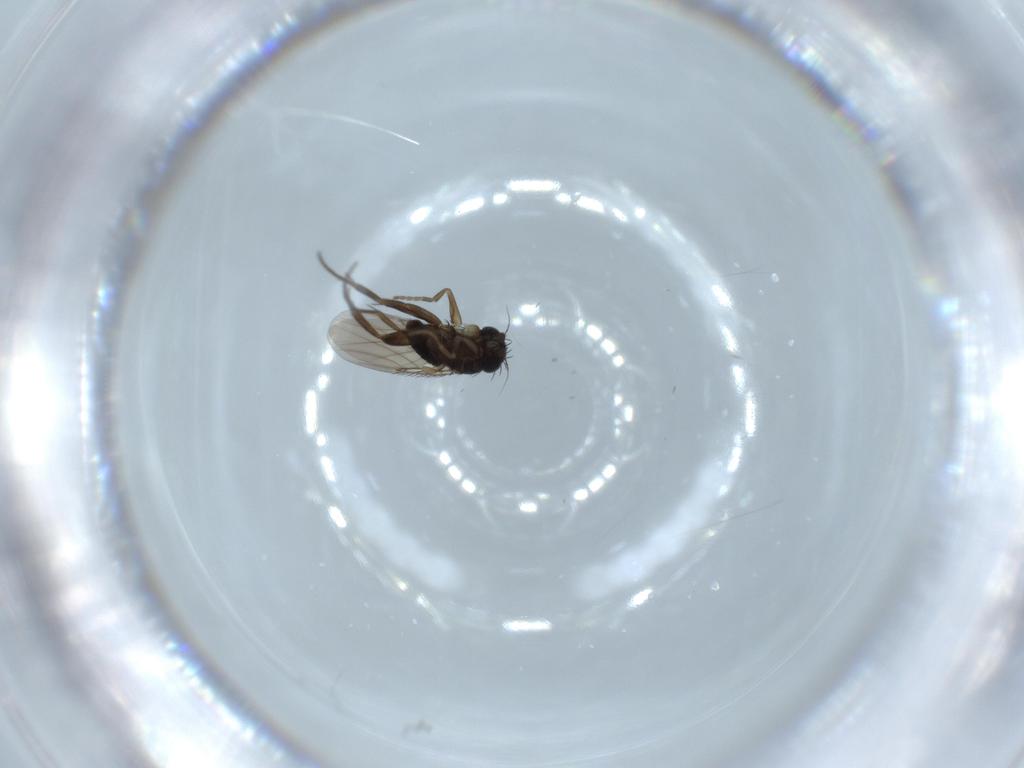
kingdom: Animalia
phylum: Arthropoda
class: Insecta
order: Diptera
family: Phoridae
